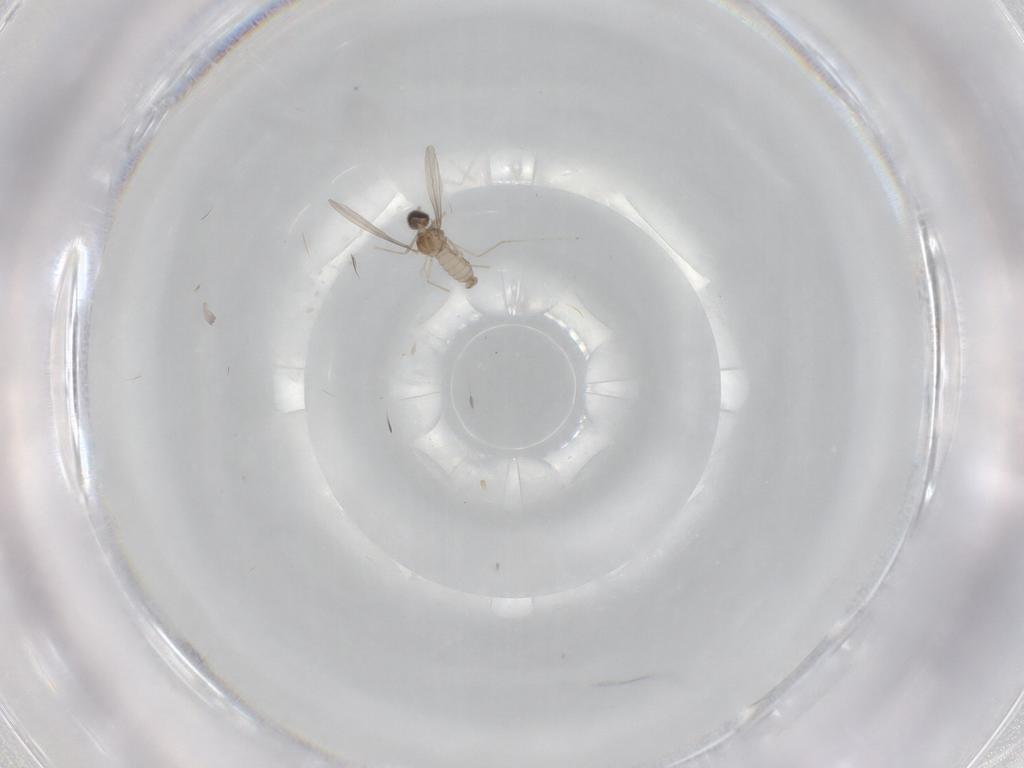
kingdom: Animalia
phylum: Arthropoda
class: Insecta
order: Diptera
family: Cecidomyiidae
